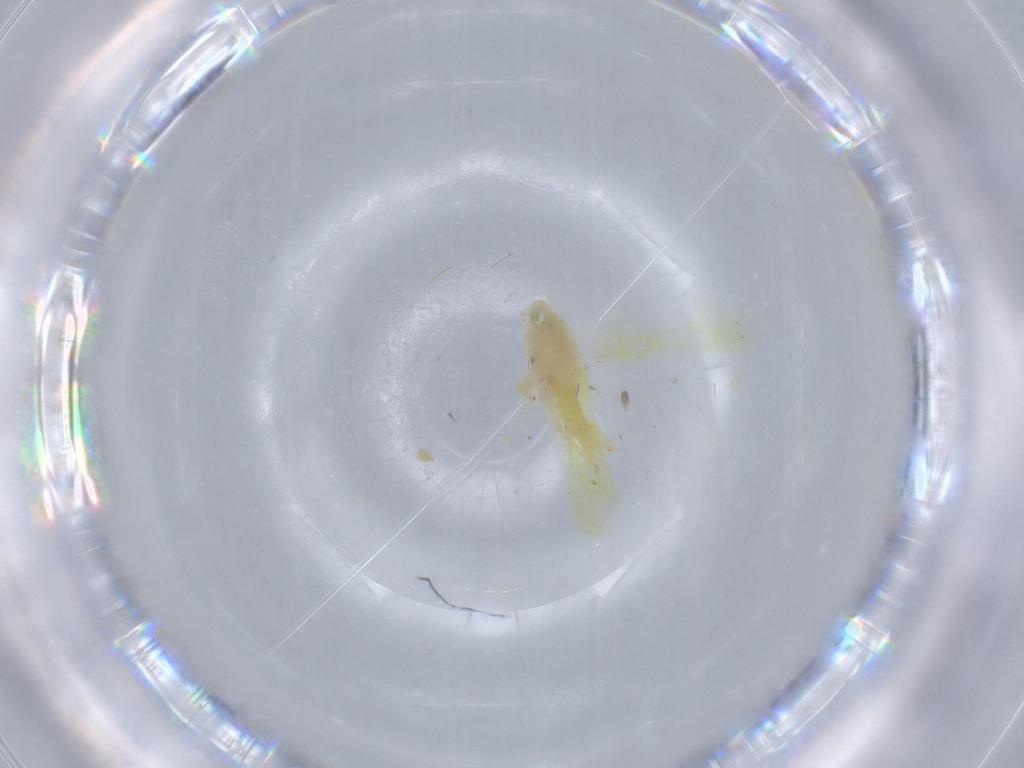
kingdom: Animalia
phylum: Arthropoda
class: Insecta
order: Hemiptera
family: Cicadellidae
